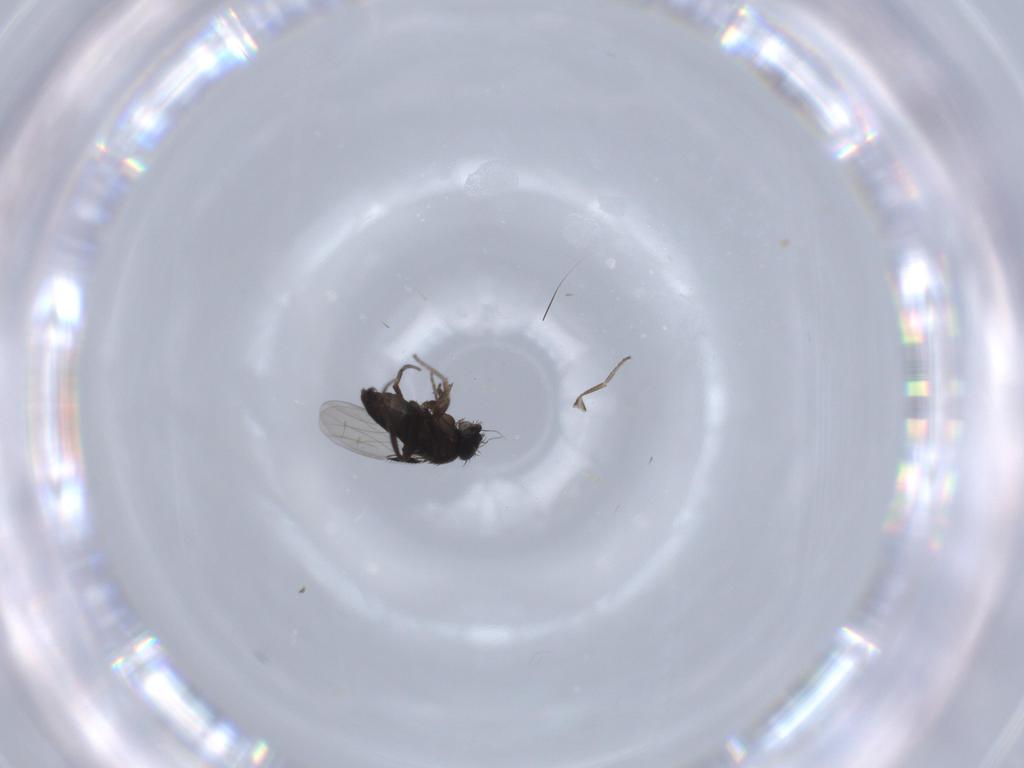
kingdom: Animalia
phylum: Arthropoda
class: Insecta
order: Diptera
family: Phoridae
